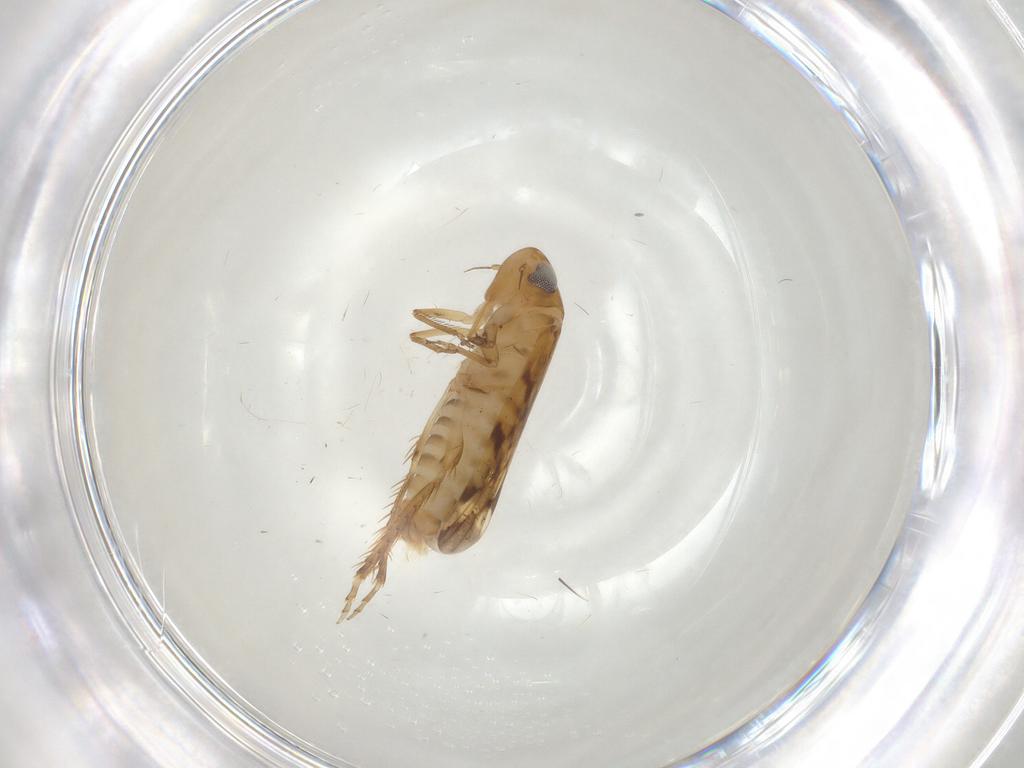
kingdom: Animalia
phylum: Arthropoda
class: Insecta
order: Hemiptera
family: Cicadellidae
